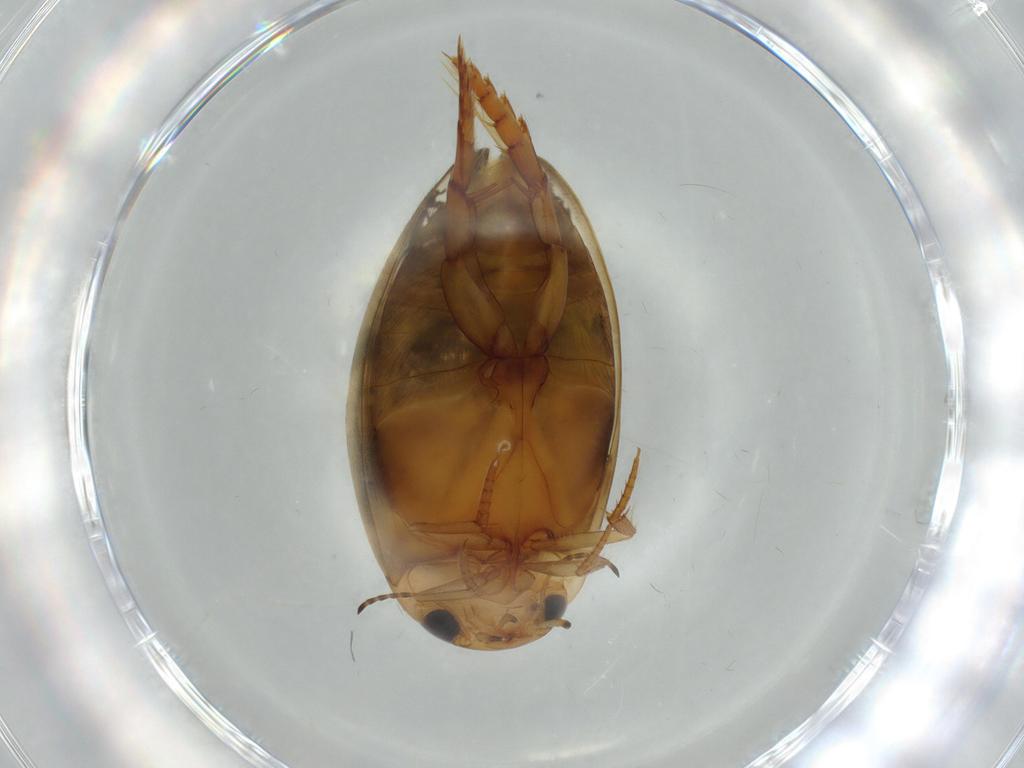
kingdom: Animalia
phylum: Arthropoda
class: Insecta
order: Coleoptera
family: Dytiscidae
